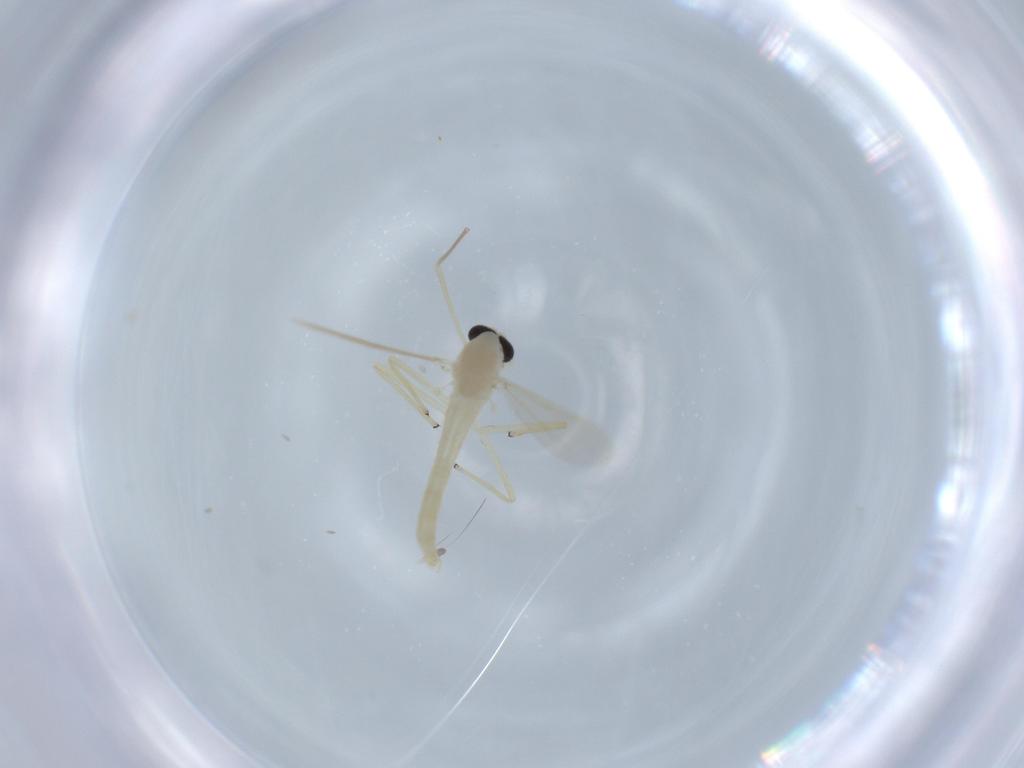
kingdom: Animalia
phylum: Arthropoda
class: Insecta
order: Diptera
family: Chironomidae
